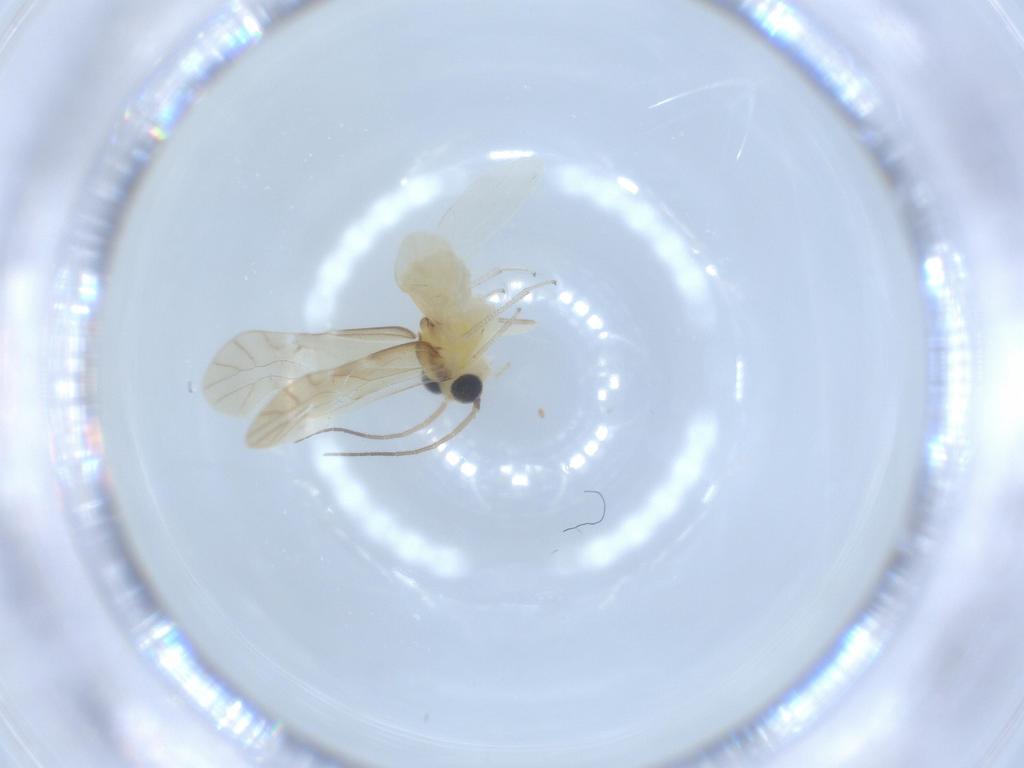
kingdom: Animalia
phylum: Arthropoda
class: Insecta
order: Psocodea
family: Caeciliusidae
